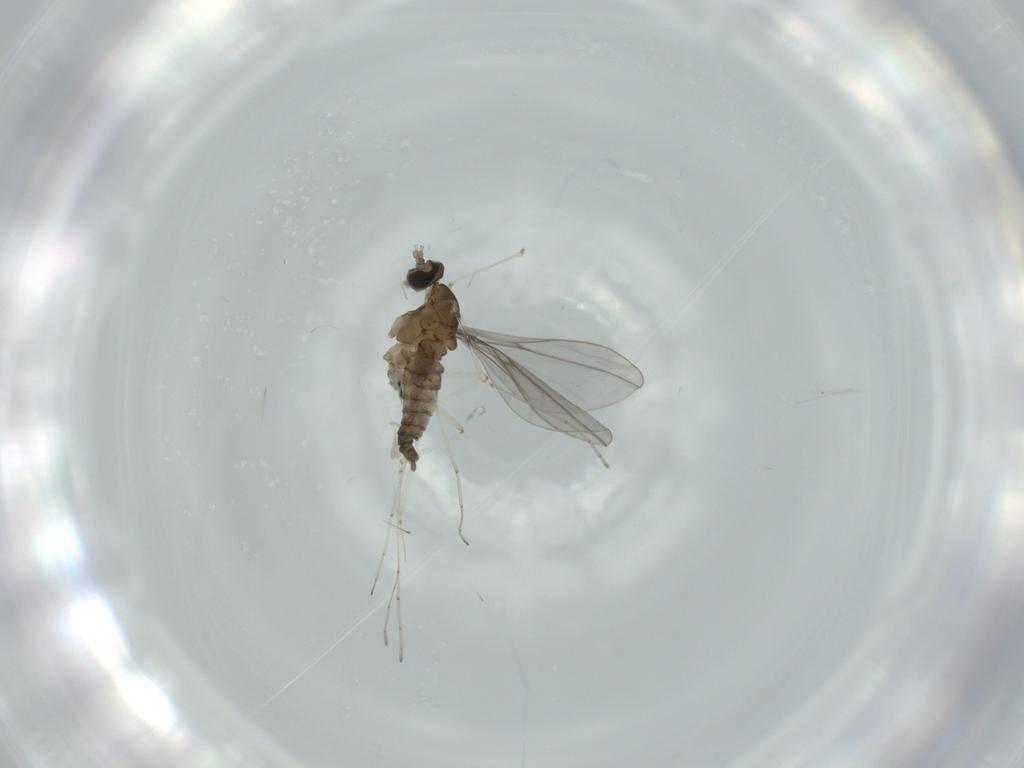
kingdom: Animalia
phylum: Arthropoda
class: Insecta
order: Diptera
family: Cecidomyiidae
